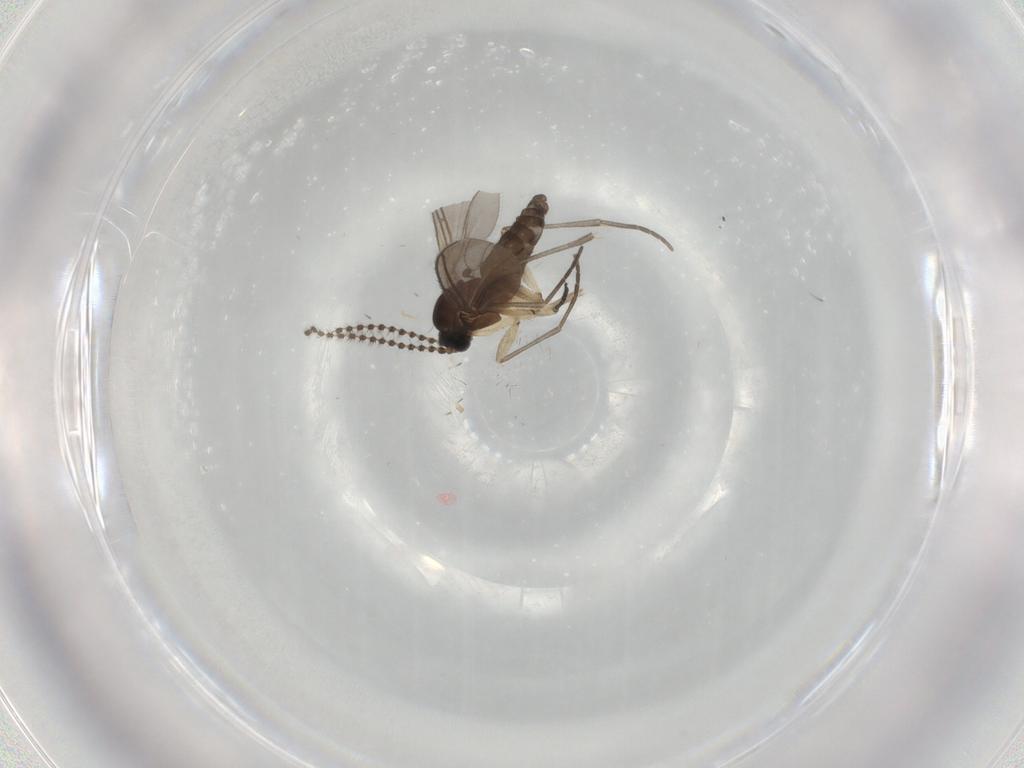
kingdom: Animalia
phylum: Arthropoda
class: Insecta
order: Diptera
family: Sciaridae
